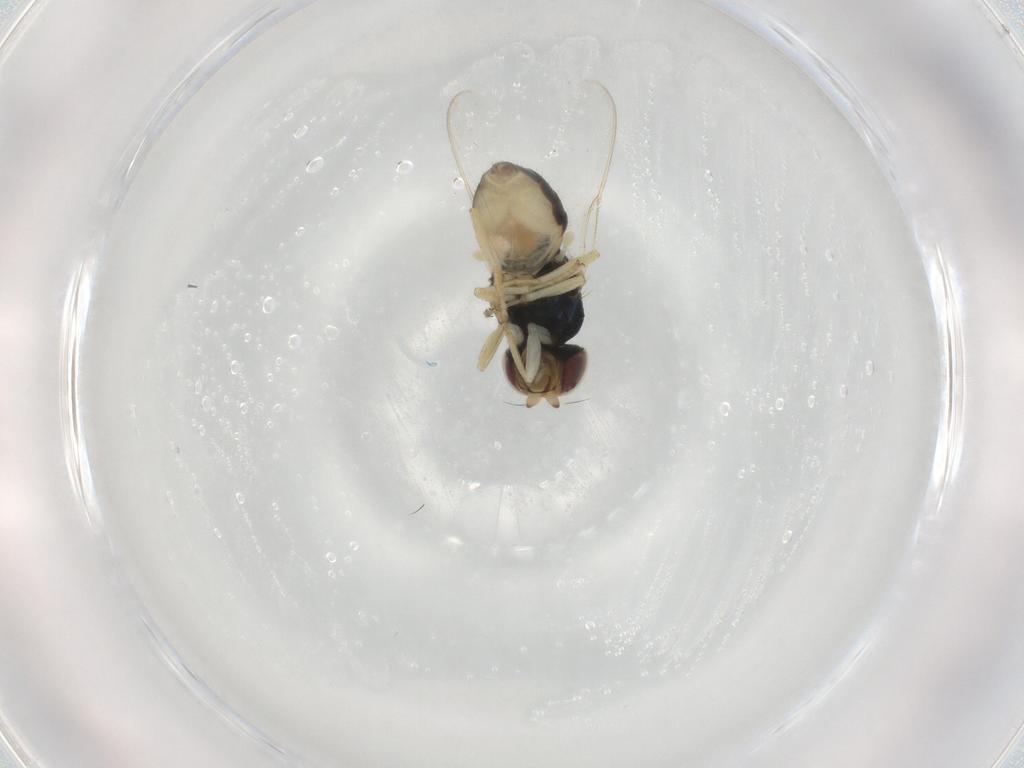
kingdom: Animalia
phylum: Arthropoda
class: Insecta
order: Diptera
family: Chloropidae
